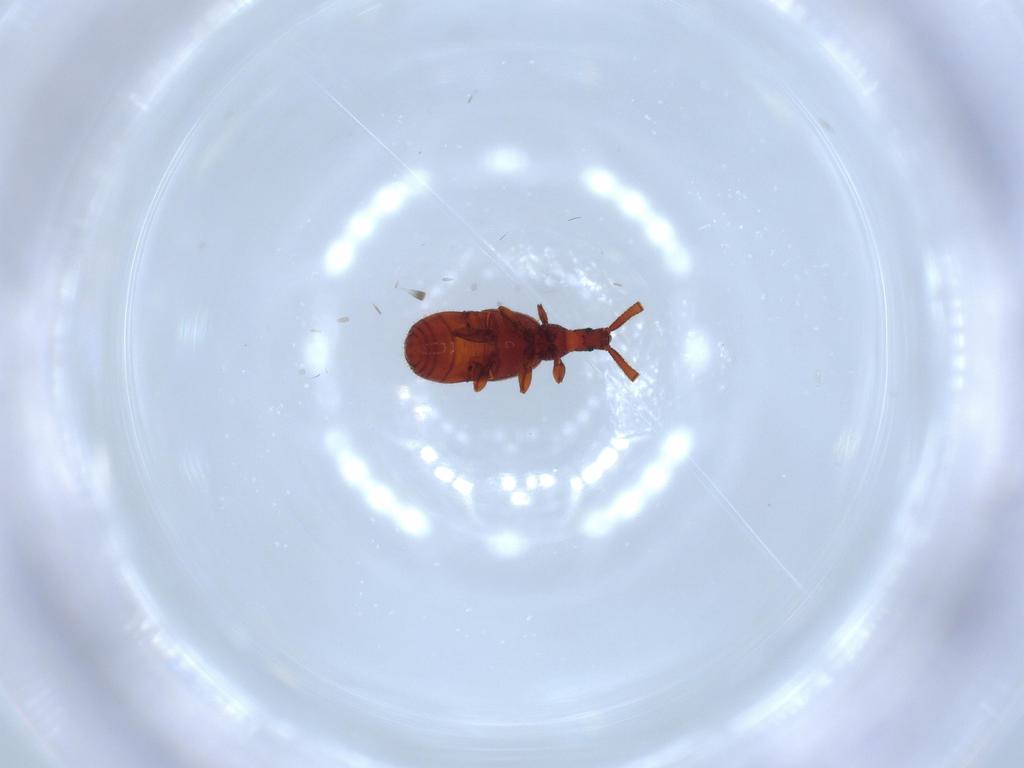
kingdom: Animalia
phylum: Arthropoda
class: Insecta
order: Coleoptera
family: Staphylinidae
